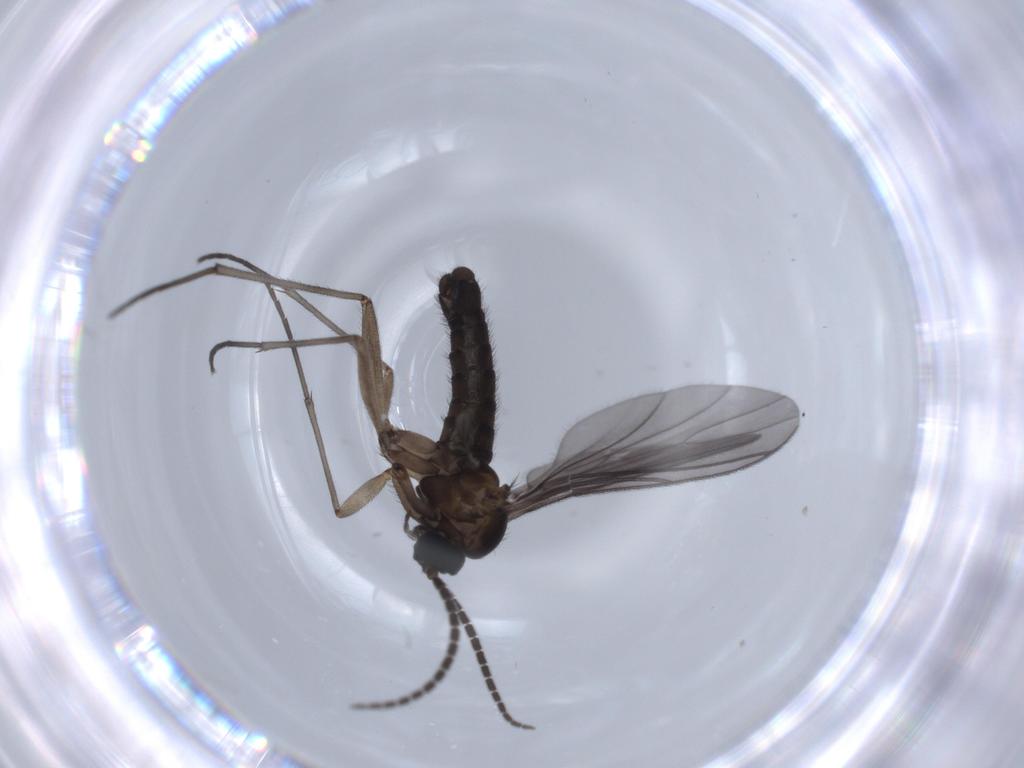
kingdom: Animalia
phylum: Arthropoda
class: Insecta
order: Diptera
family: Sciaridae
